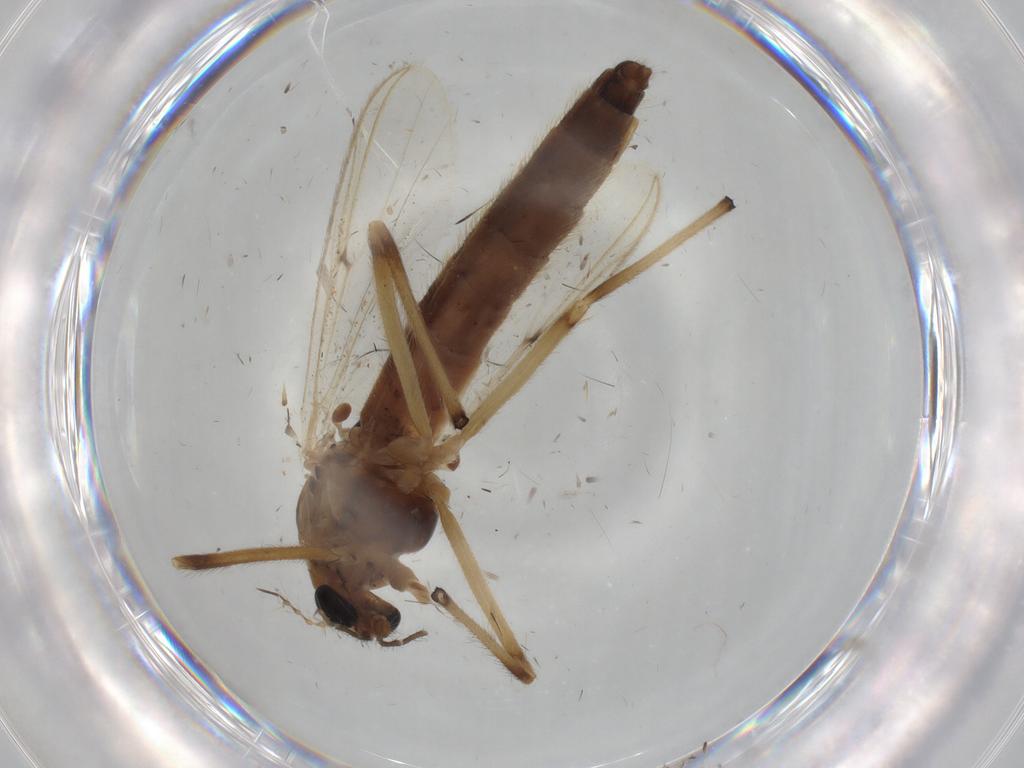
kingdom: Animalia
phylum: Arthropoda
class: Insecta
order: Diptera
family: Chironomidae
